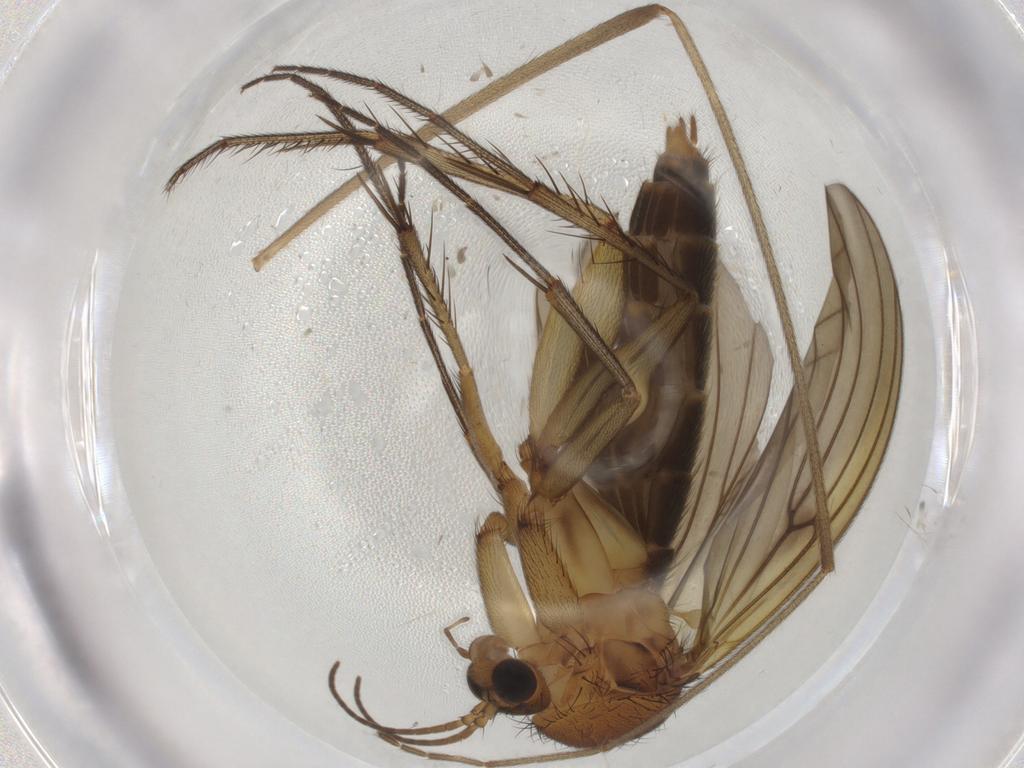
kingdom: Animalia
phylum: Arthropoda
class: Insecta
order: Diptera
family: Mycetophilidae
